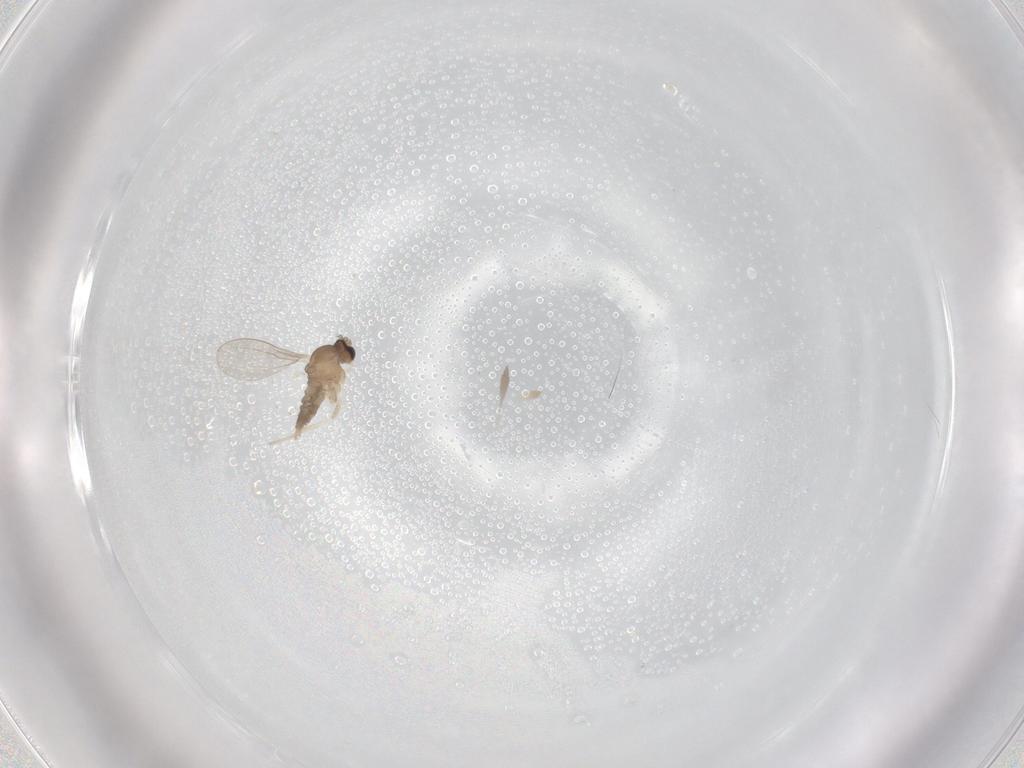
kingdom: Animalia
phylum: Arthropoda
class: Insecta
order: Diptera
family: Cecidomyiidae
